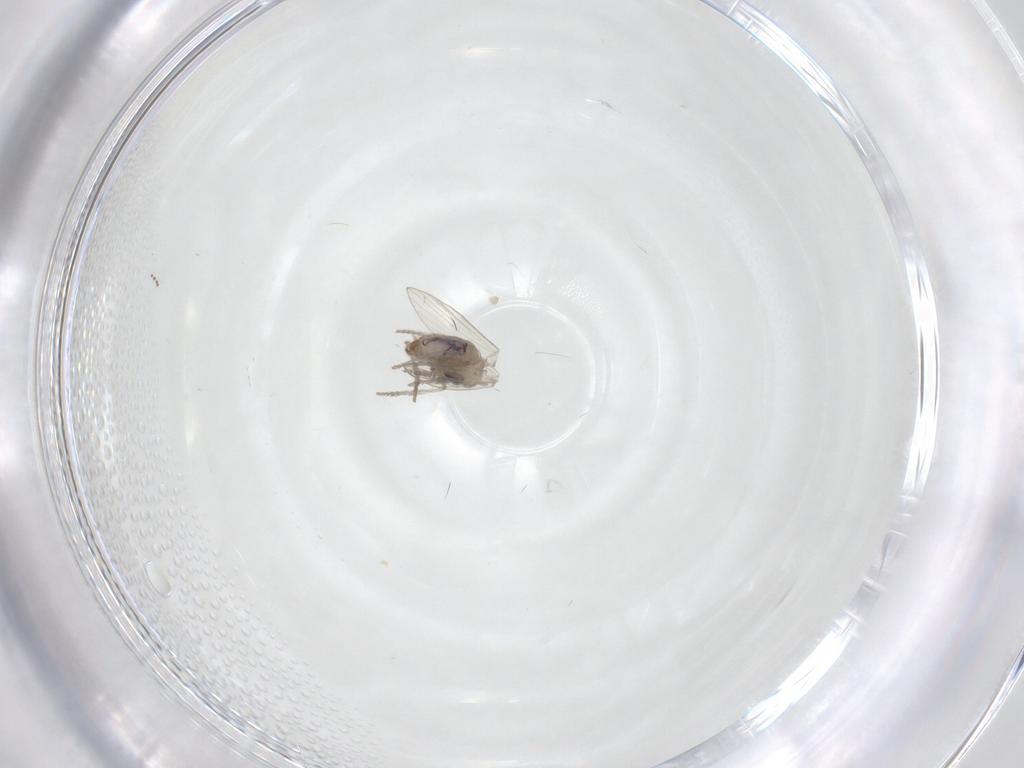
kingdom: Animalia
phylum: Arthropoda
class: Insecta
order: Diptera
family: Psychodidae
